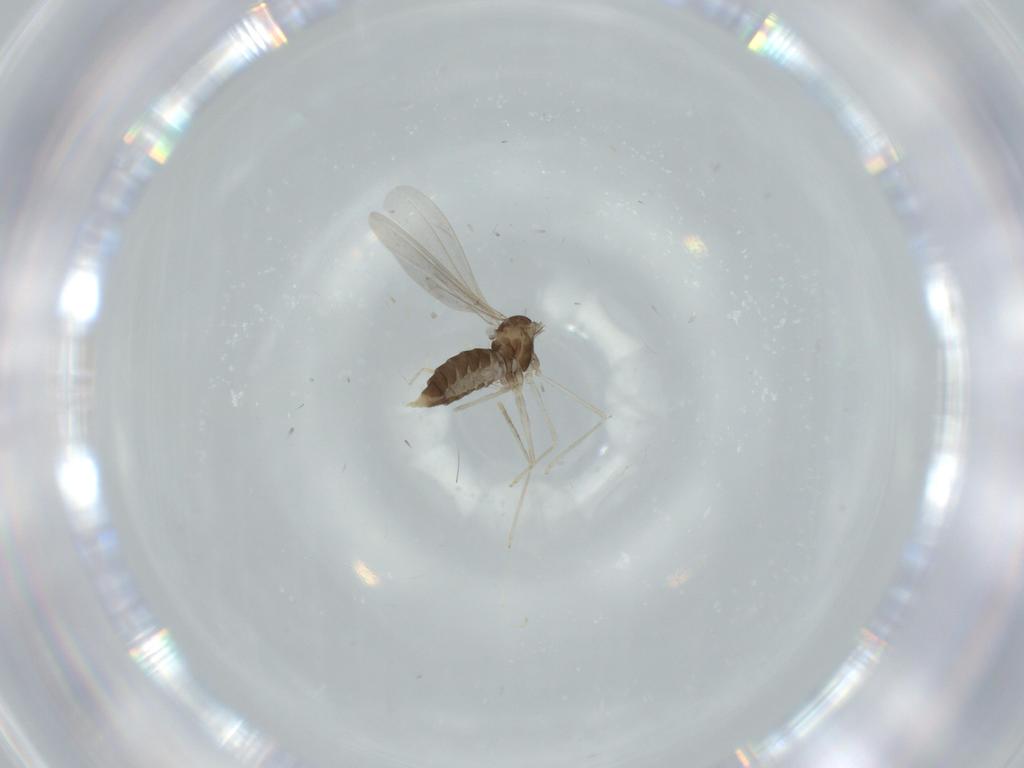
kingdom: Animalia
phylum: Arthropoda
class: Insecta
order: Diptera
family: Cecidomyiidae
